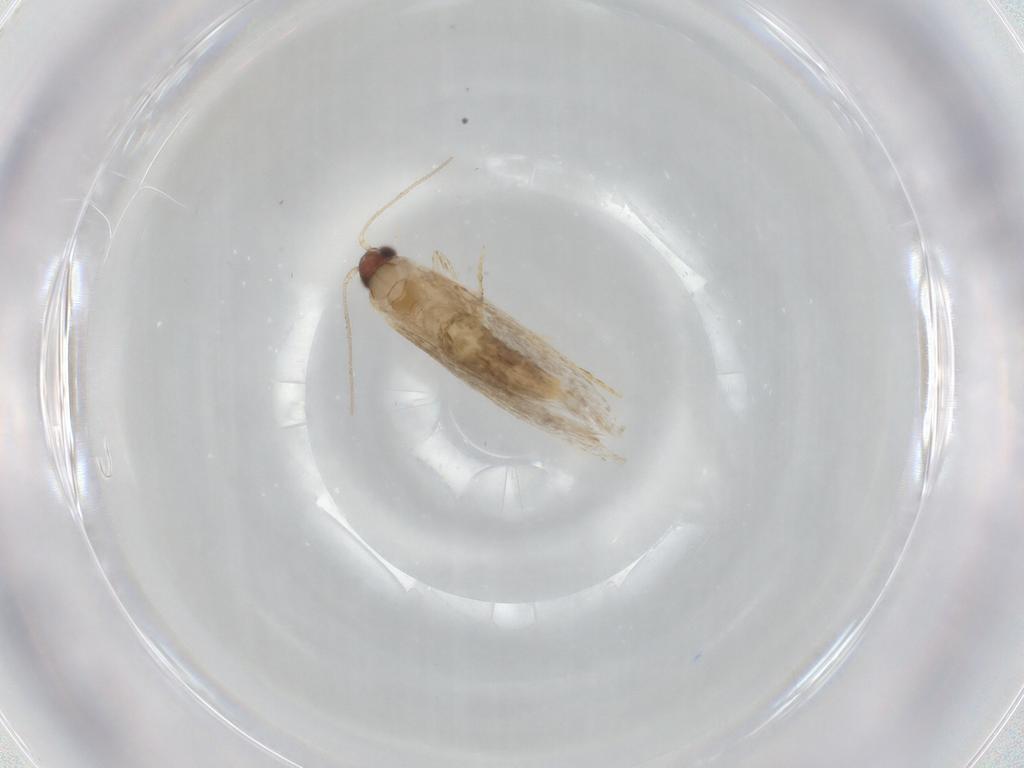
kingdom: Animalia
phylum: Arthropoda
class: Insecta
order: Lepidoptera
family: Tineidae
